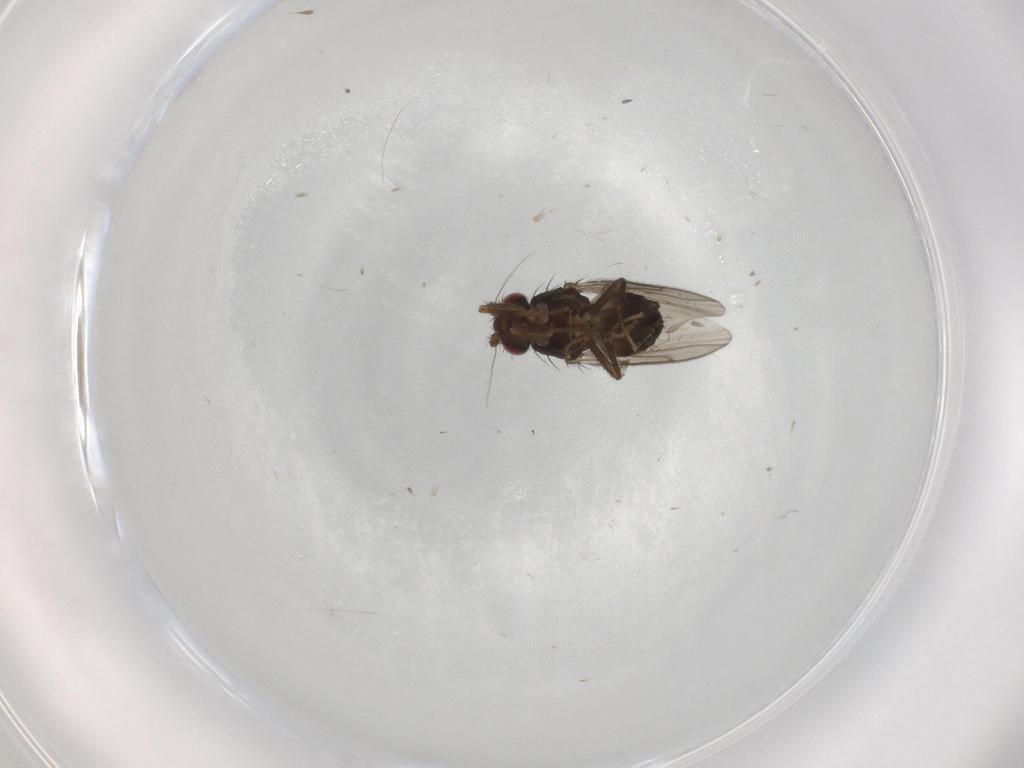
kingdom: Animalia
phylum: Arthropoda
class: Insecta
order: Diptera
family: Sphaeroceridae
